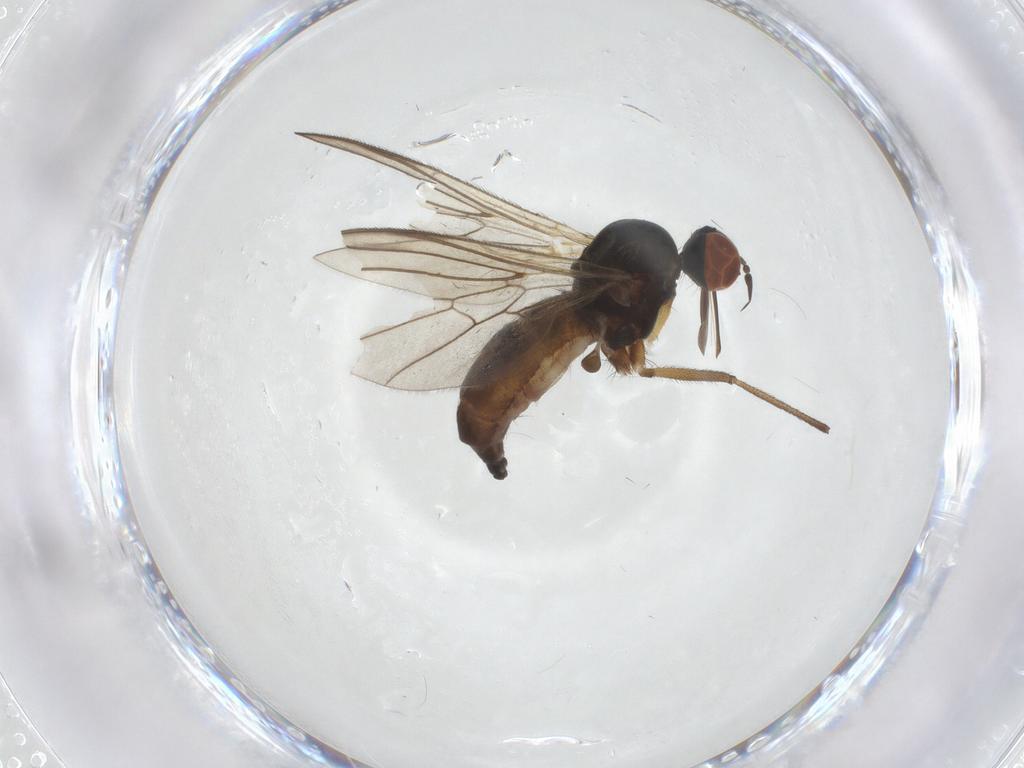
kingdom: Animalia
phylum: Arthropoda
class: Insecta
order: Diptera
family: Empididae
